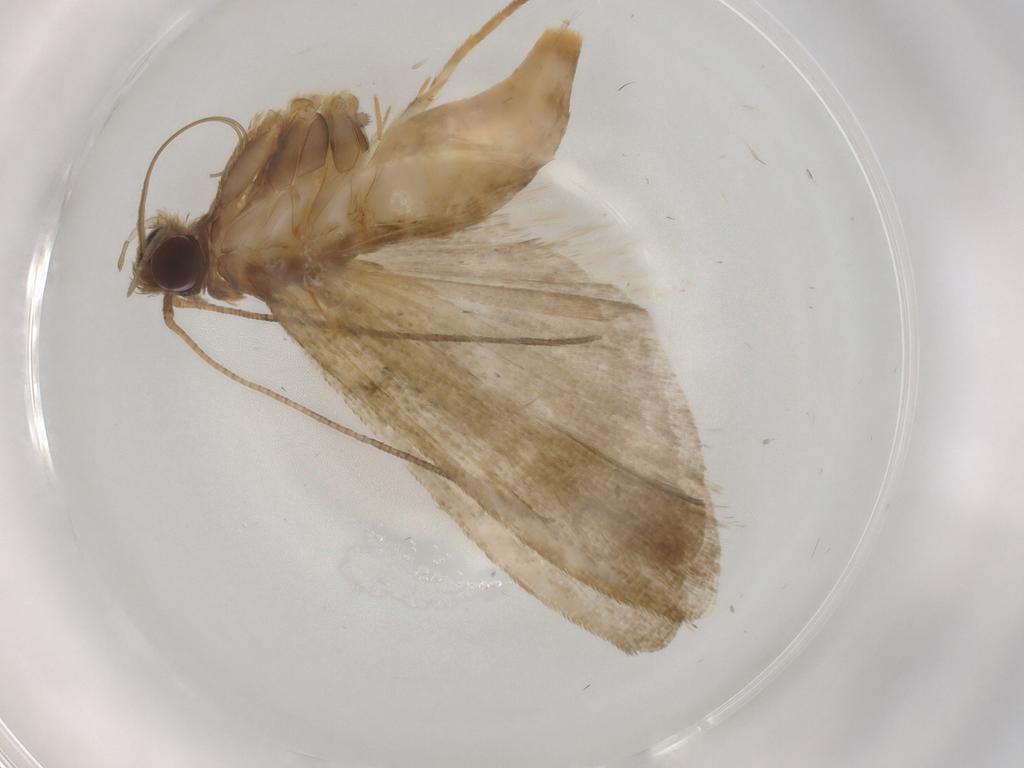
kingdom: Animalia
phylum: Arthropoda
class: Insecta
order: Lepidoptera
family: Noctuidae
